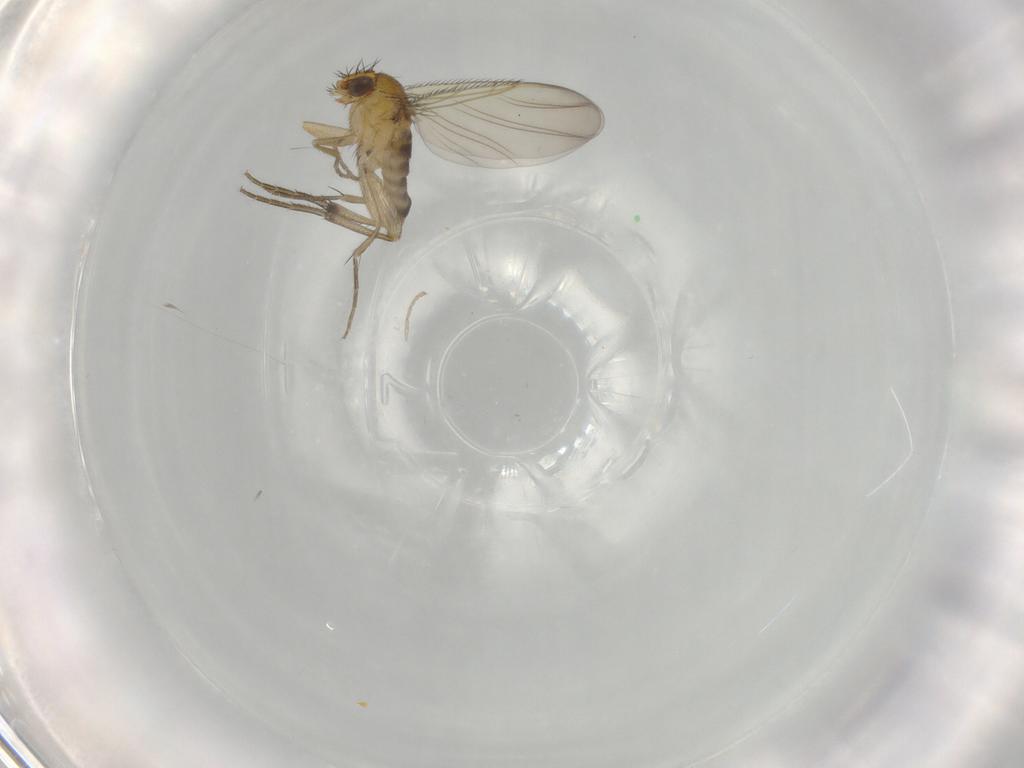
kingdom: Animalia
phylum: Arthropoda
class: Insecta
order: Diptera
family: Phoridae
